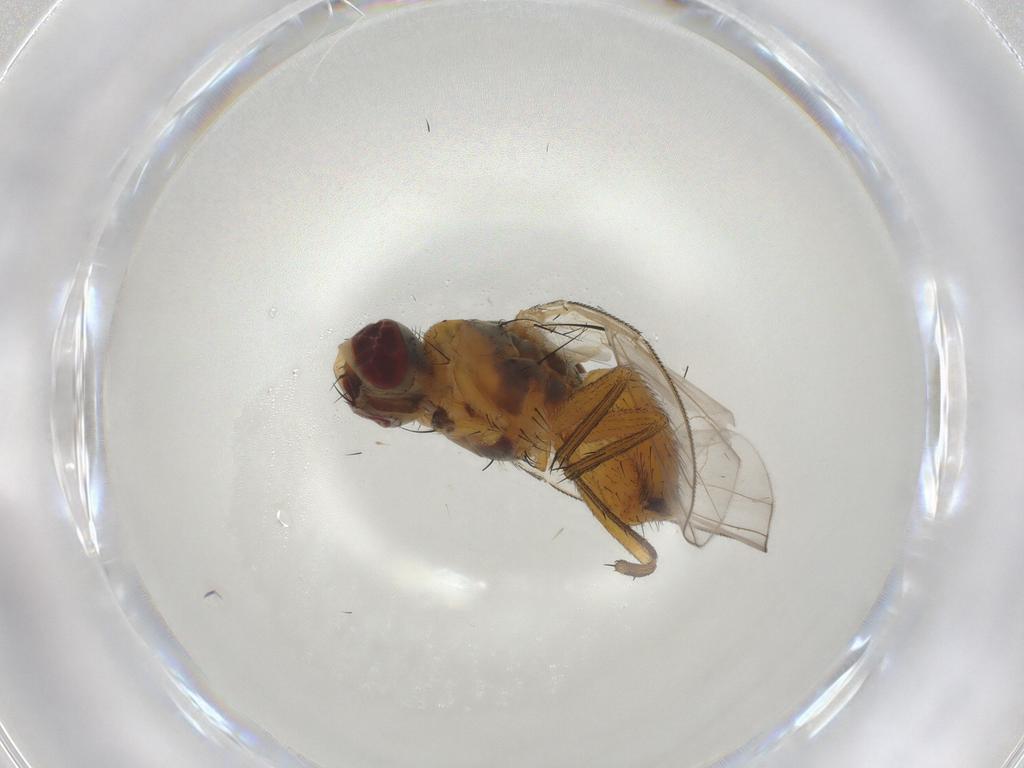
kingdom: Animalia
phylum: Arthropoda
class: Insecta
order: Diptera
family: Muscidae
